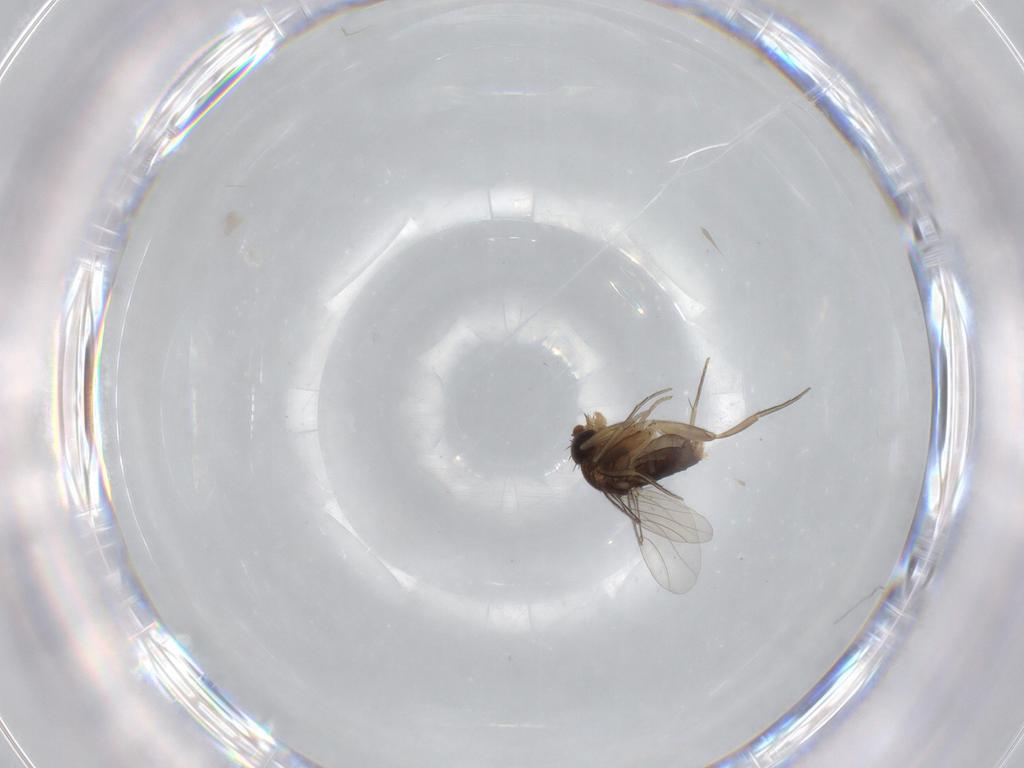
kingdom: Animalia
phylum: Arthropoda
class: Insecta
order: Diptera
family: Phoridae
